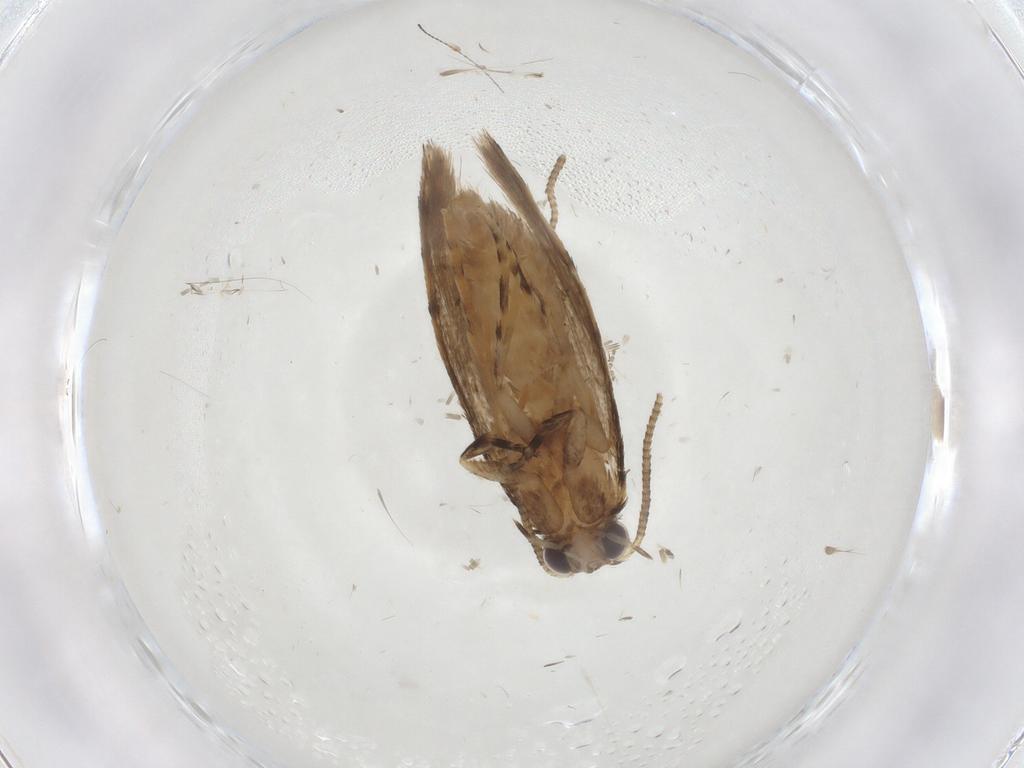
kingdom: Animalia
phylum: Arthropoda
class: Insecta
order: Lepidoptera
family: Tineidae
